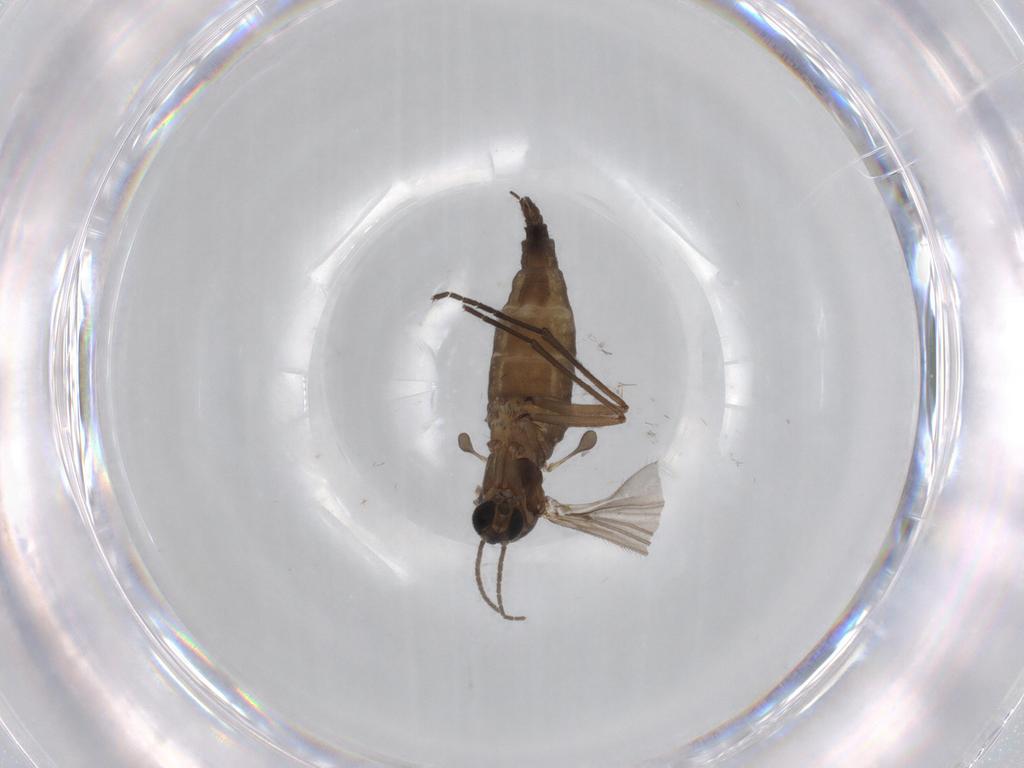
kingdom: Animalia
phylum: Arthropoda
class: Insecta
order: Diptera
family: Sciaridae
